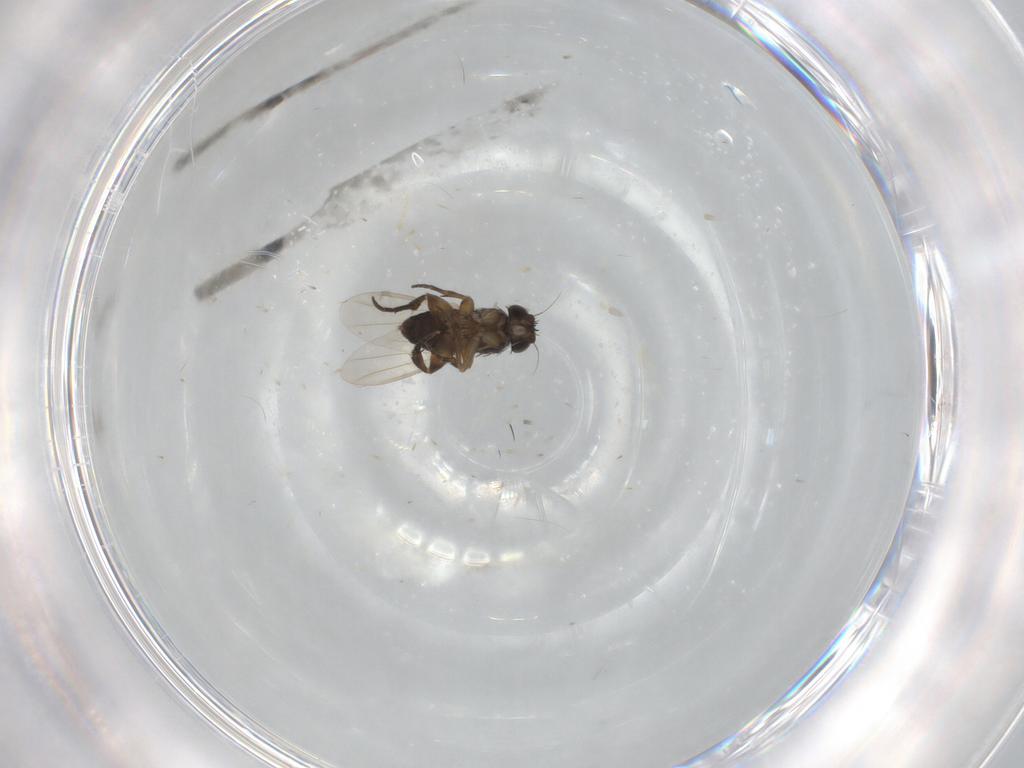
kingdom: Animalia
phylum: Arthropoda
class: Insecta
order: Diptera
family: Phoridae
